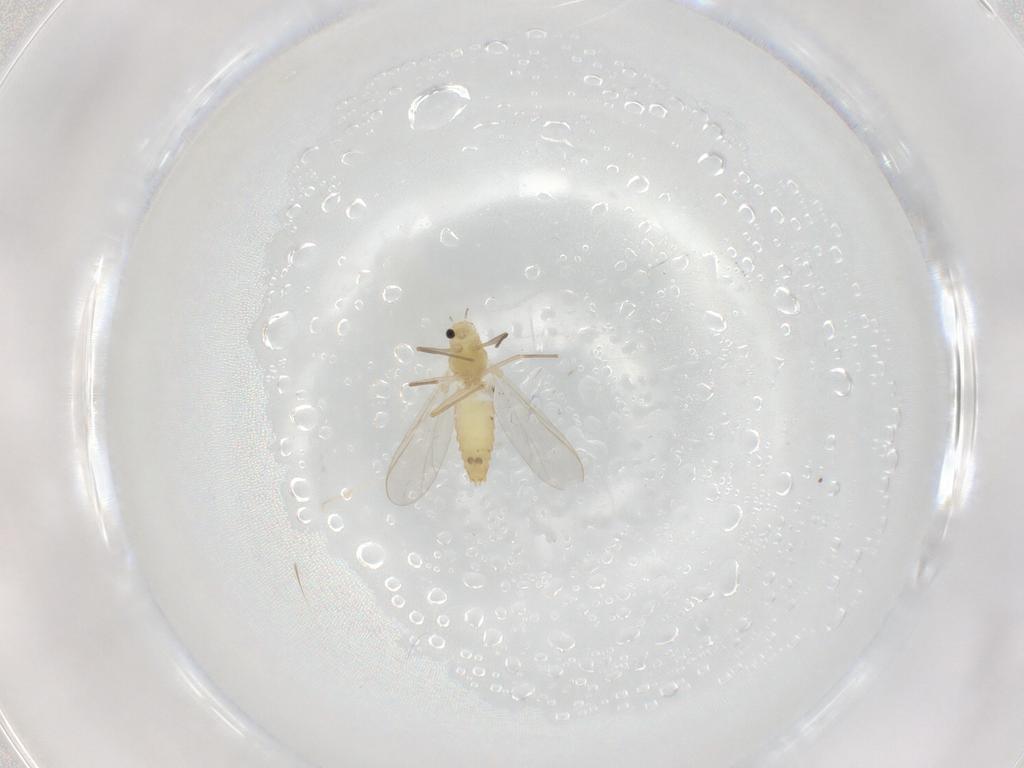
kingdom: Animalia
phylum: Arthropoda
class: Insecta
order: Diptera
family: Chironomidae
